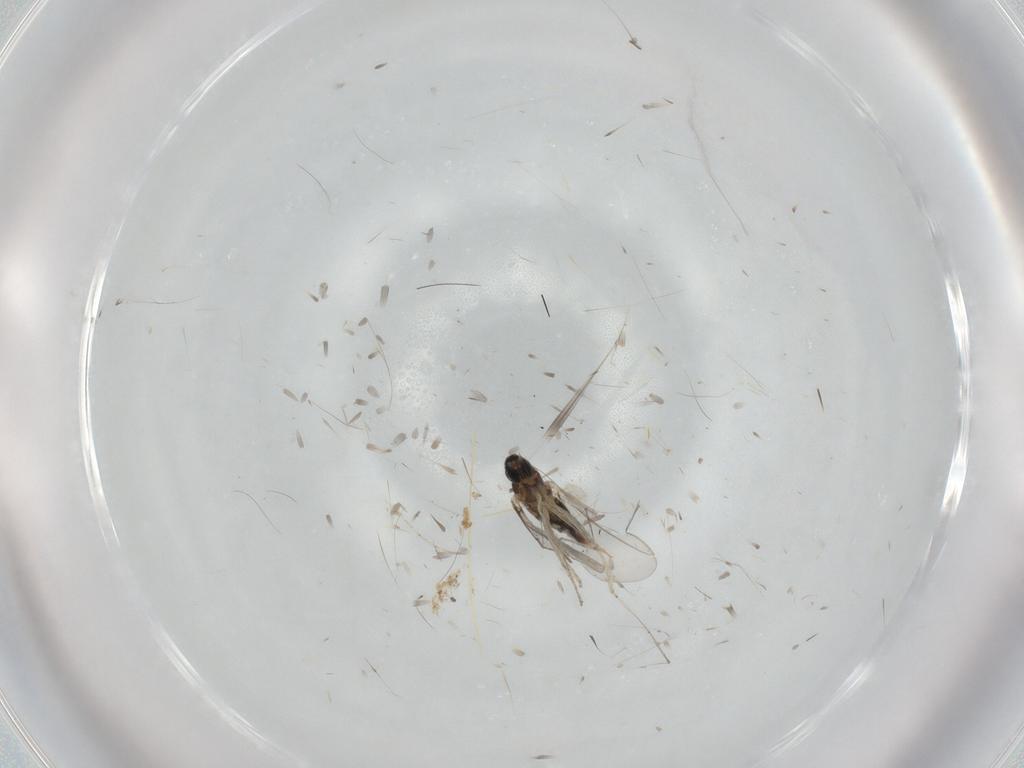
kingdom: Animalia
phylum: Arthropoda
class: Insecta
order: Diptera
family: Cecidomyiidae
